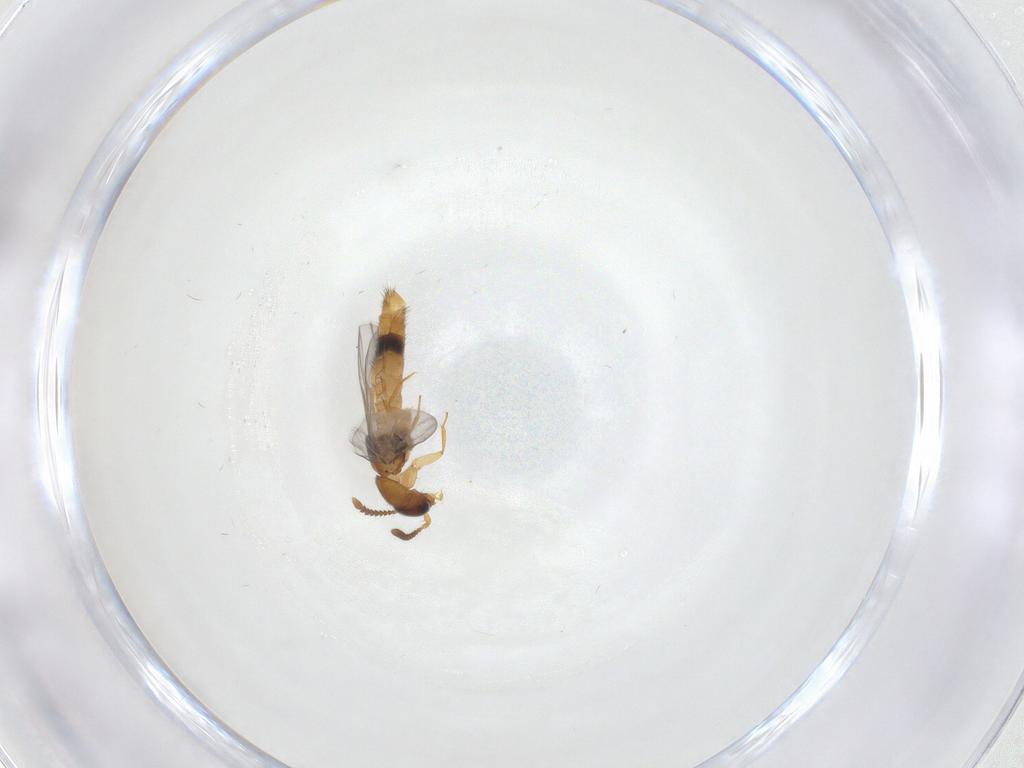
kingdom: Animalia
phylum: Arthropoda
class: Insecta
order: Coleoptera
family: Staphylinidae
